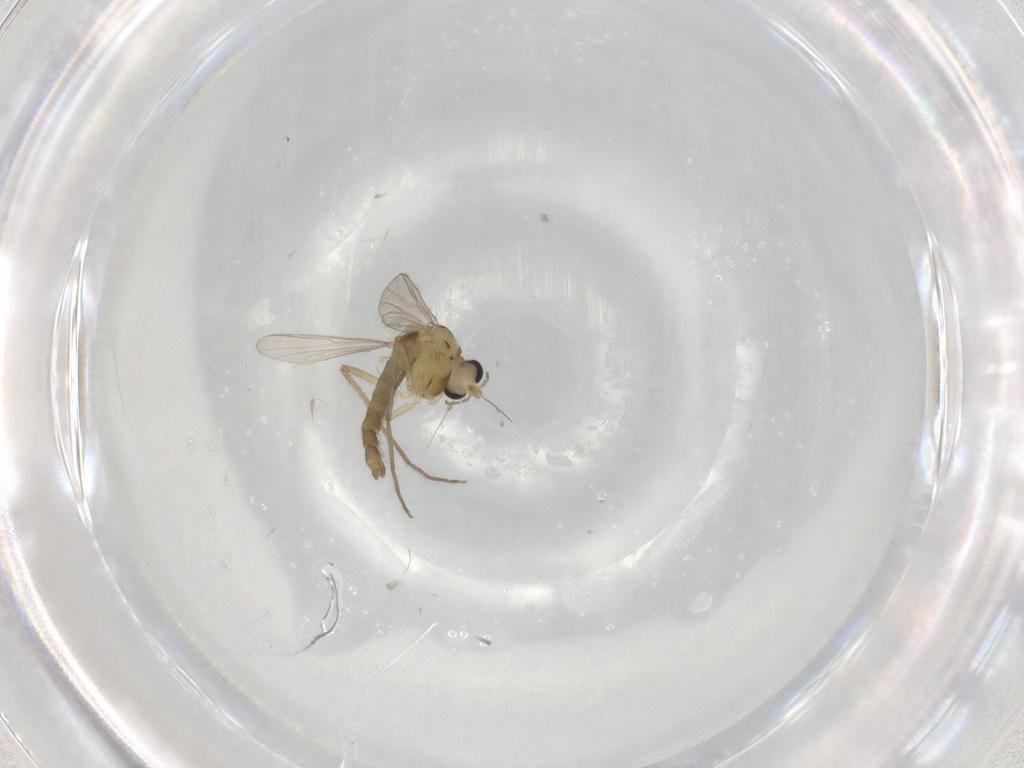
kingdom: Animalia
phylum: Arthropoda
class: Insecta
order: Diptera
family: Chironomidae
